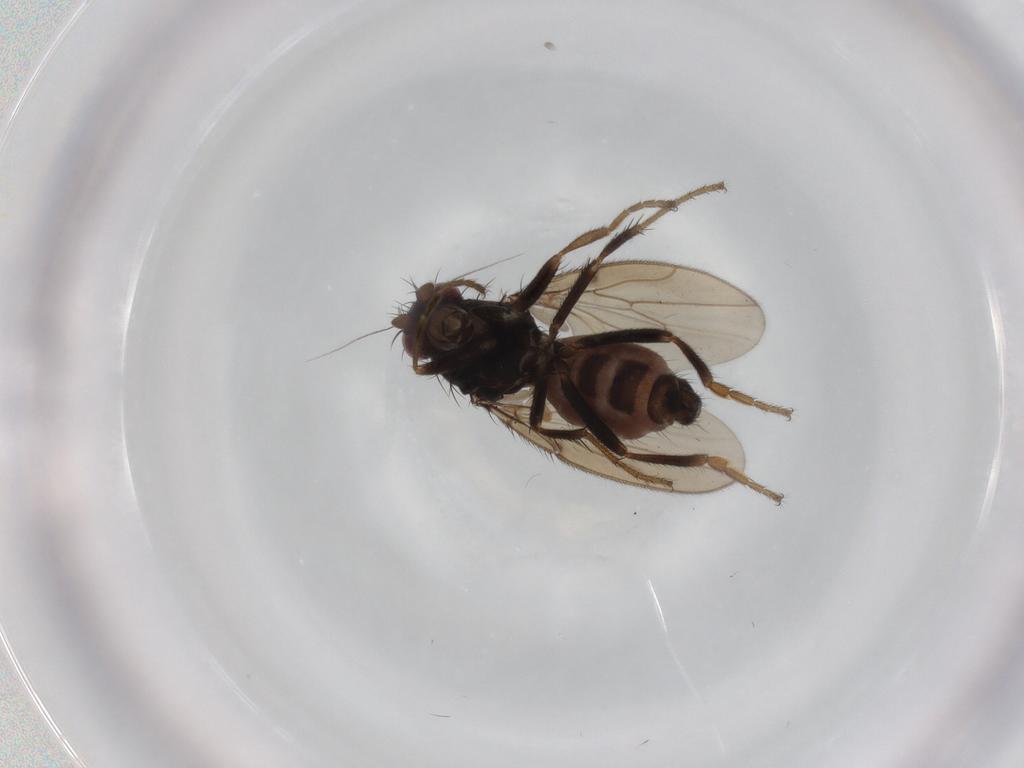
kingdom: Animalia
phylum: Arthropoda
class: Insecta
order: Diptera
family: Sphaeroceridae
